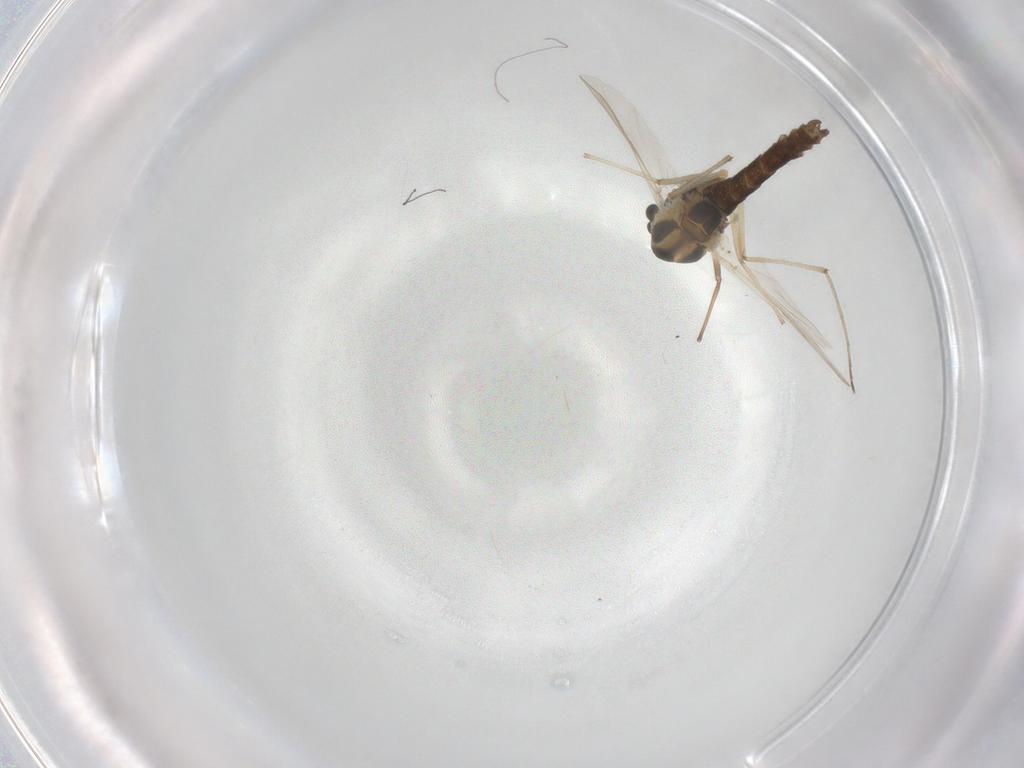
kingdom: Animalia
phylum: Arthropoda
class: Insecta
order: Diptera
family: Chironomidae
